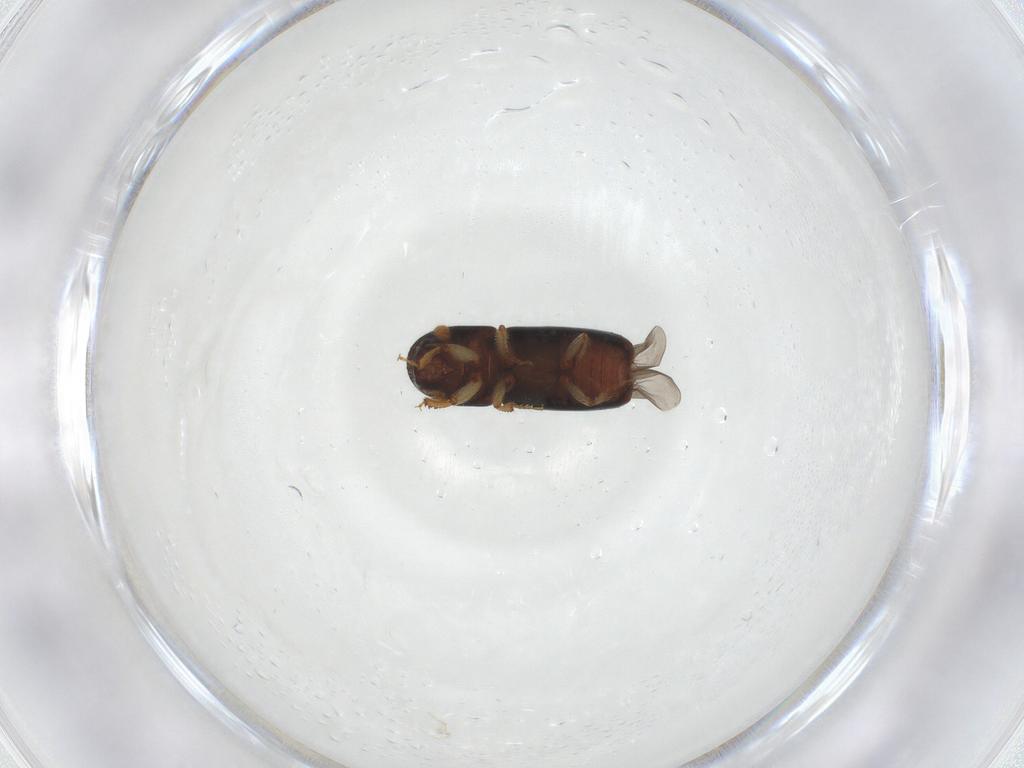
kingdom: Animalia
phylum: Arthropoda
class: Insecta
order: Coleoptera
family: Curculionidae
